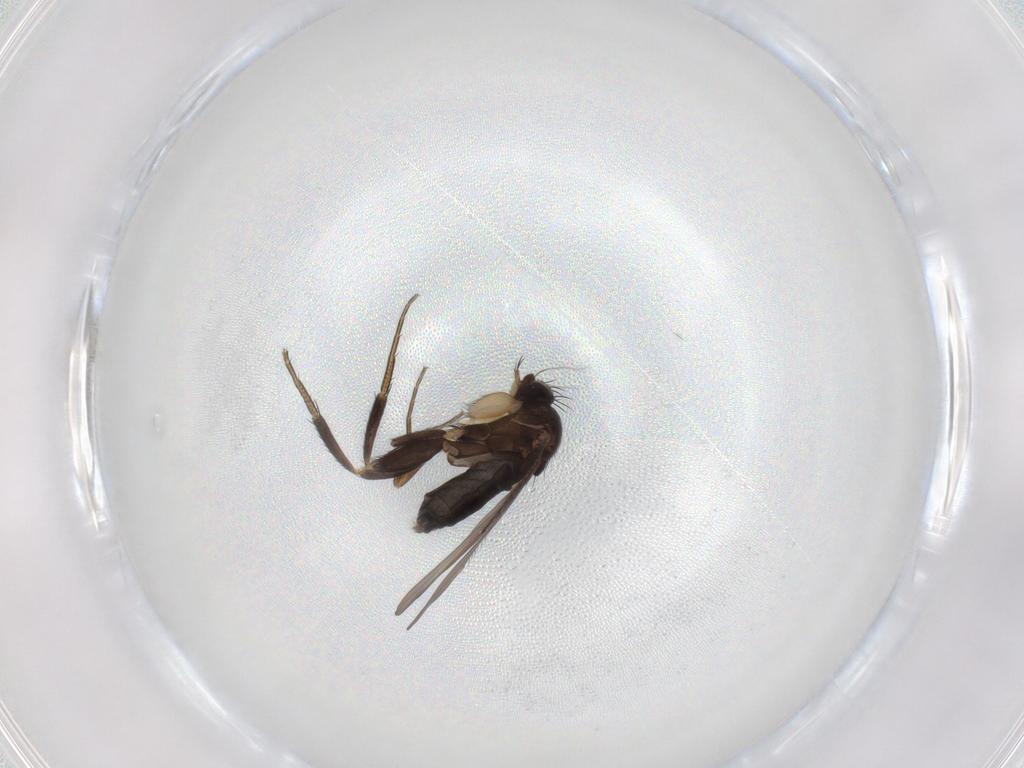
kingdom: Animalia
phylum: Arthropoda
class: Insecta
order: Diptera
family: Phoridae
